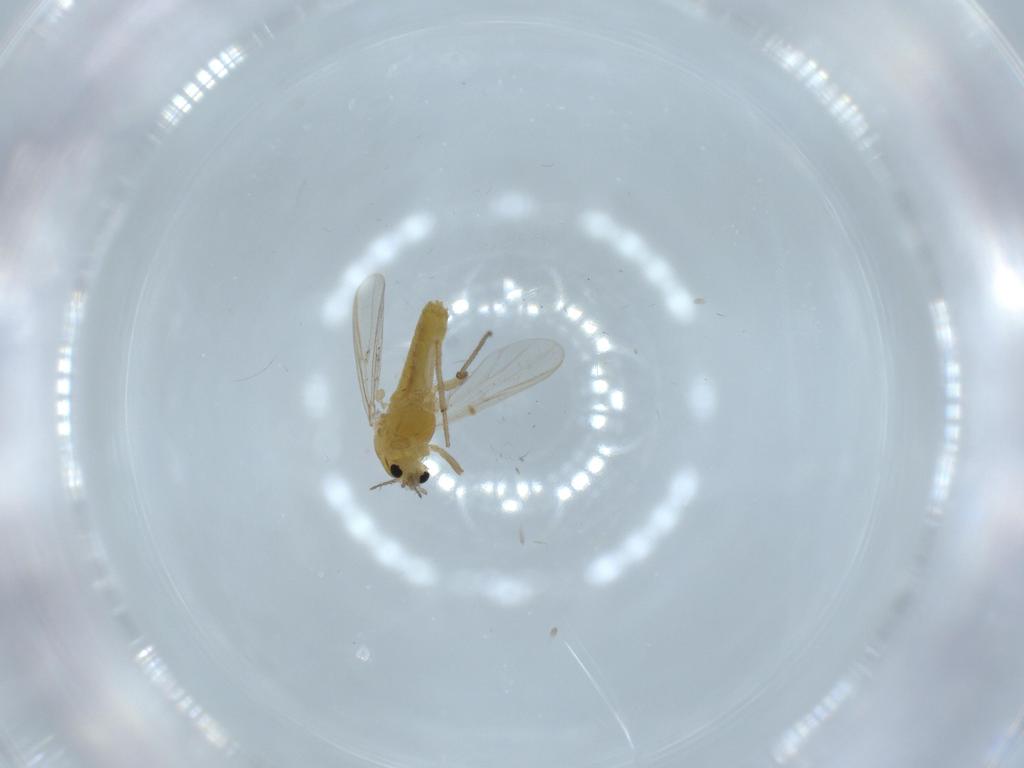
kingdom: Animalia
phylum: Arthropoda
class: Insecta
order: Diptera
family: Chironomidae
